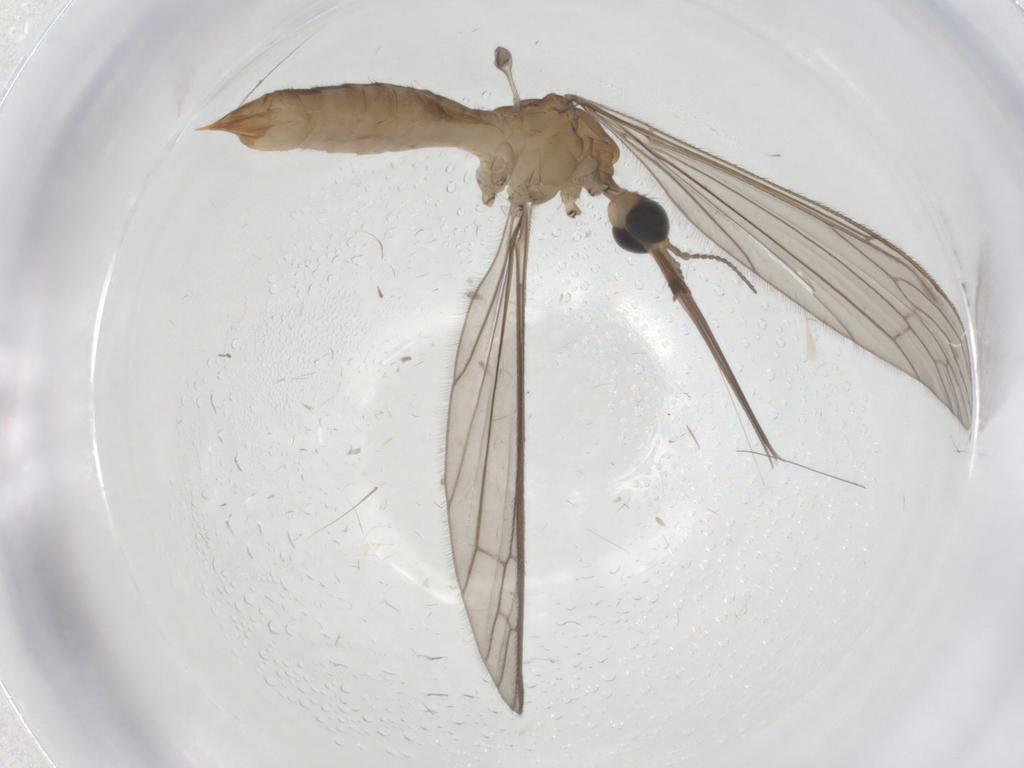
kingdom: Animalia
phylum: Arthropoda
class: Insecta
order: Diptera
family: Limoniidae
